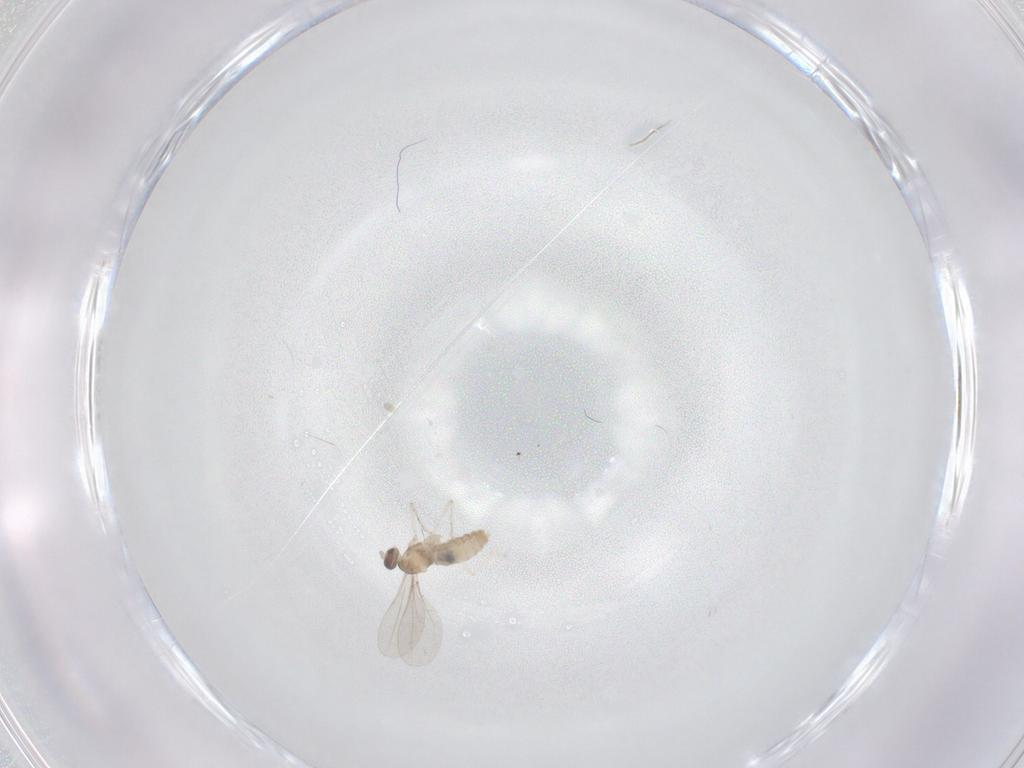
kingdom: Animalia
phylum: Arthropoda
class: Insecta
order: Diptera
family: Cecidomyiidae
